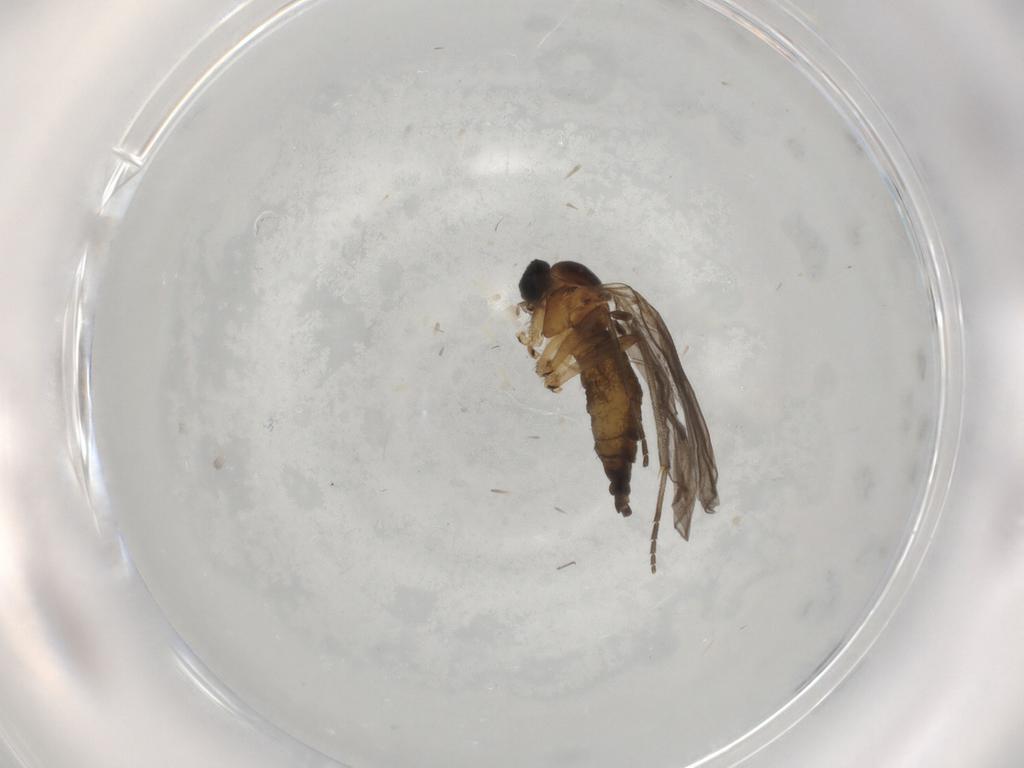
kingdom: Animalia
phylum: Arthropoda
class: Insecta
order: Diptera
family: Sciaridae
